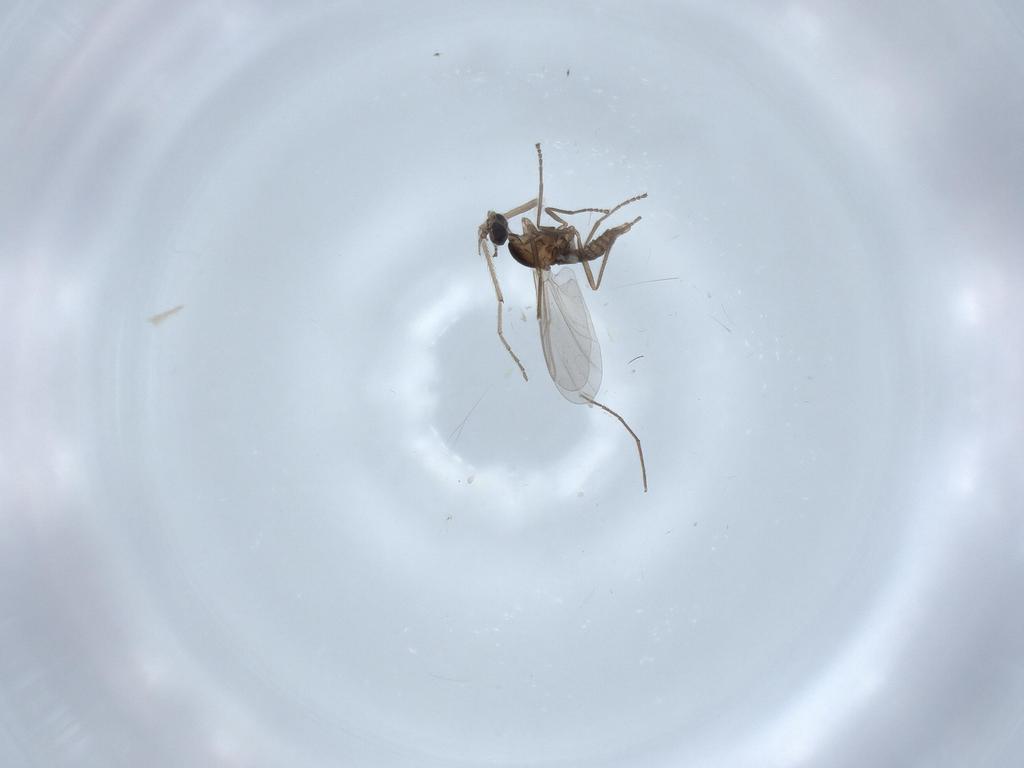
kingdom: Animalia
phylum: Arthropoda
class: Insecta
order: Diptera
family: Cecidomyiidae
